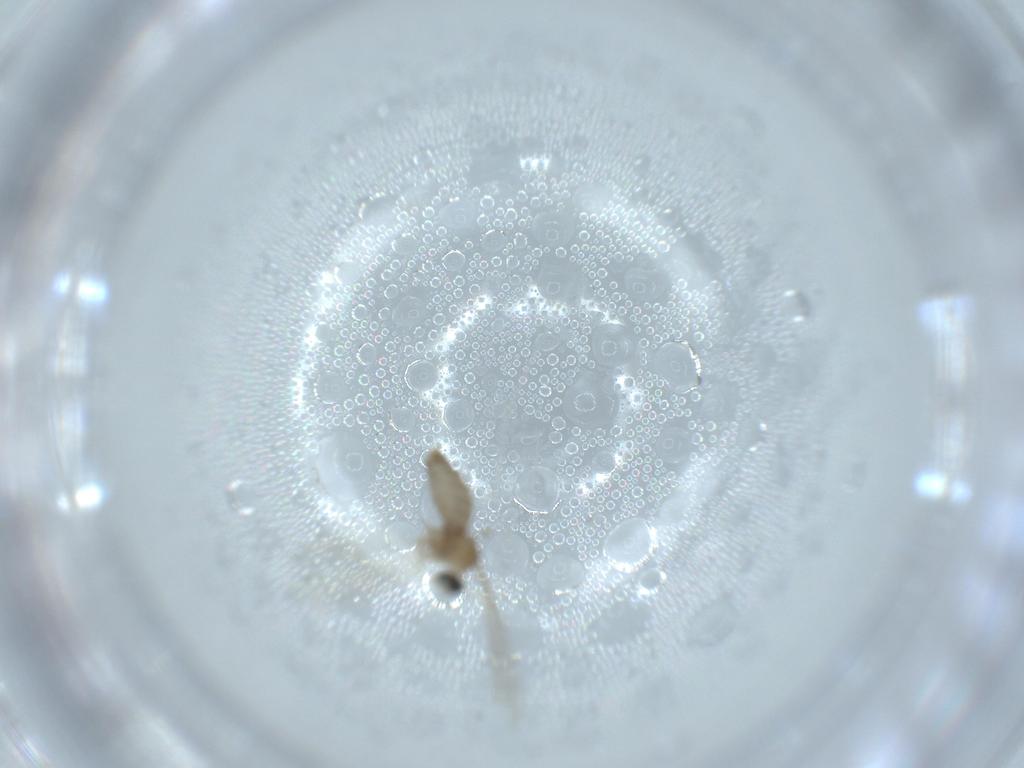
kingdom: Animalia
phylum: Arthropoda
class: Insecta
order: Diptera
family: Cecidomyiidae
